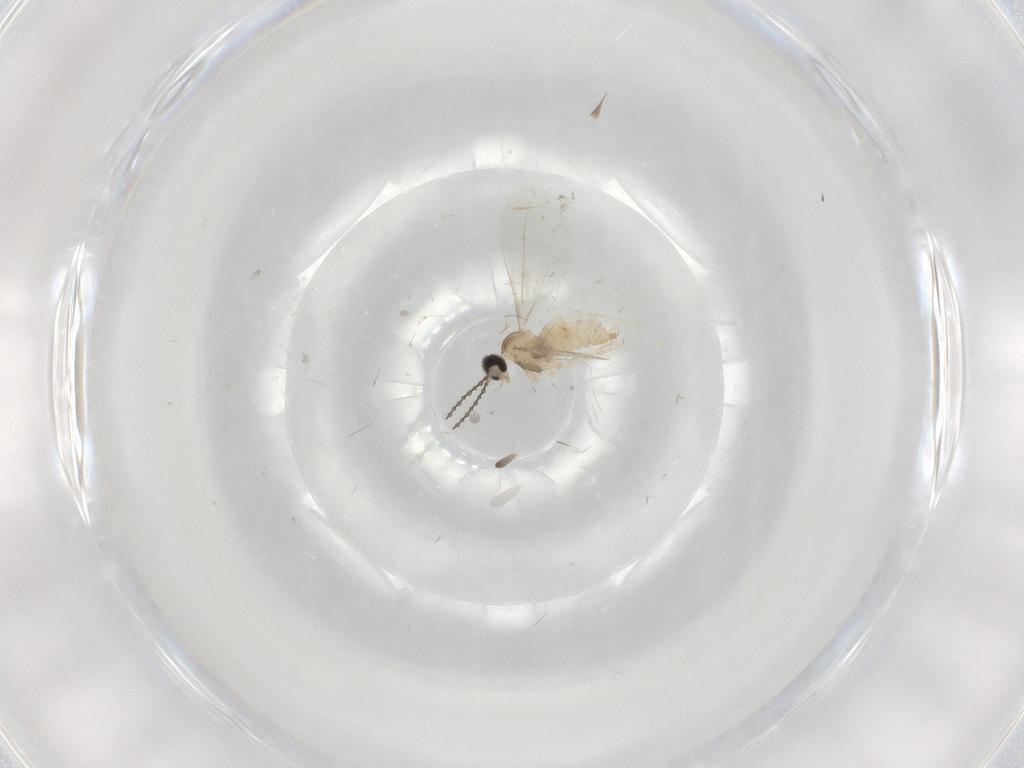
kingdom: Animalia
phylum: Arthropoda
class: Insecta
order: Diptera
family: Cecidomyiidae
